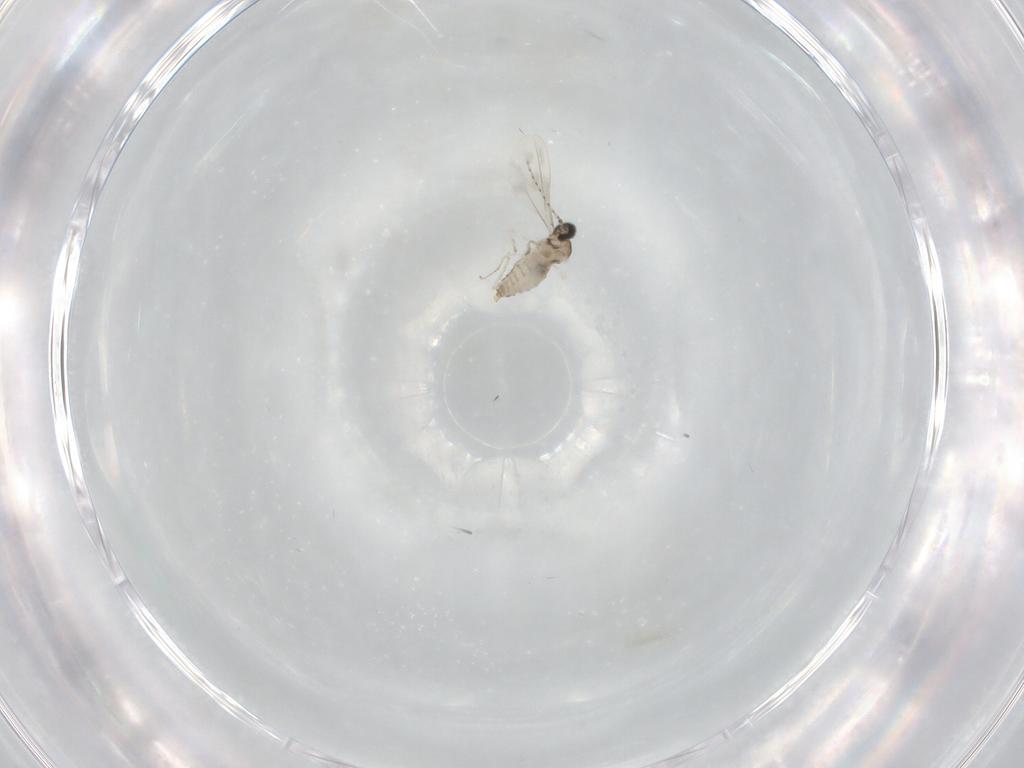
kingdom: Animalia
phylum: Arthropoda
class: Insecta
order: Diptera
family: Cecidomyiidae
